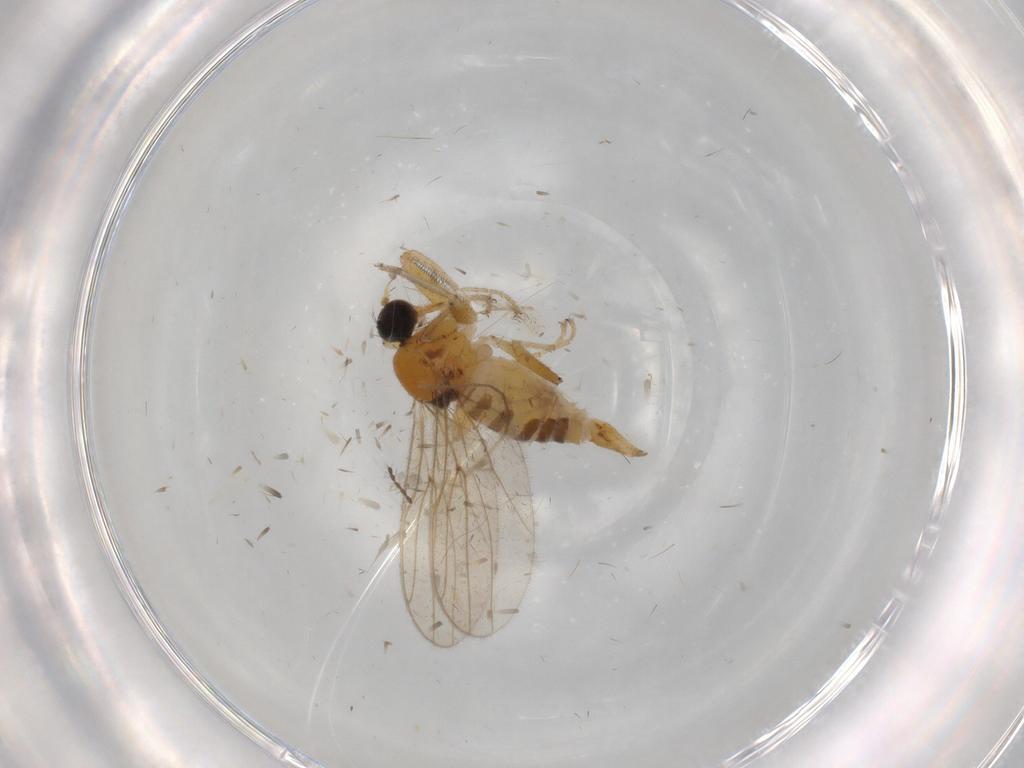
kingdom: Animalia
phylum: Arthropoda
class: Insecta
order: Diptera
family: Hybotidae
